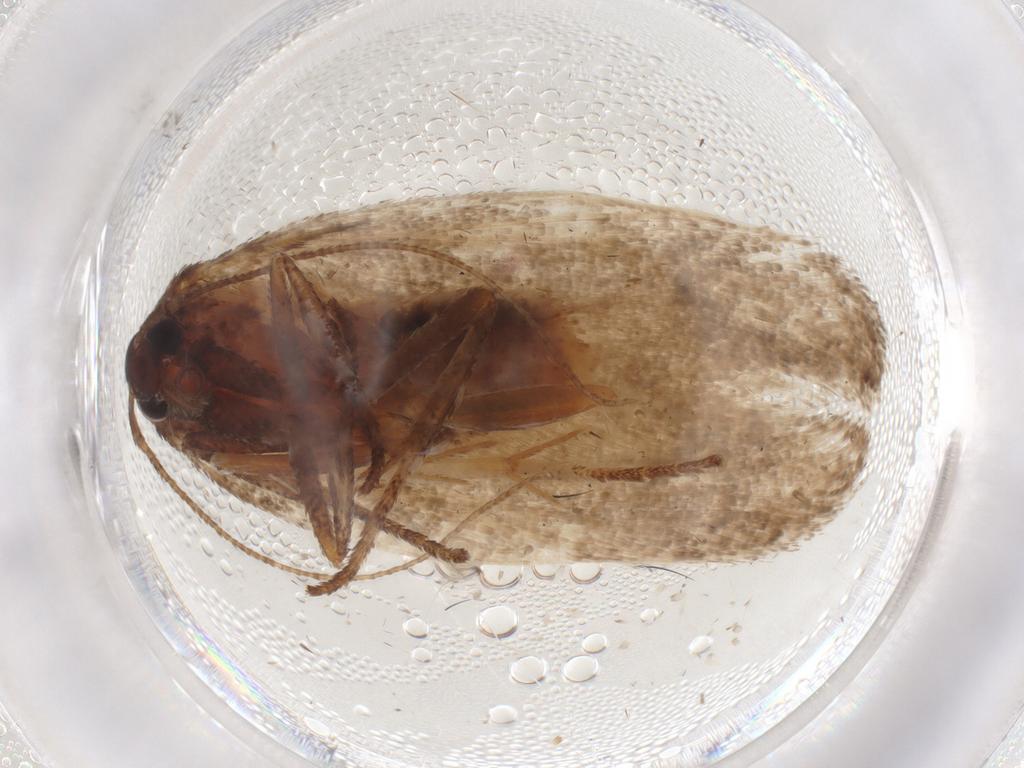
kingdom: Animalia
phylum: Arthropoda
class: Insecta
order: Lepidoptera
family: Cosmopterigidae
